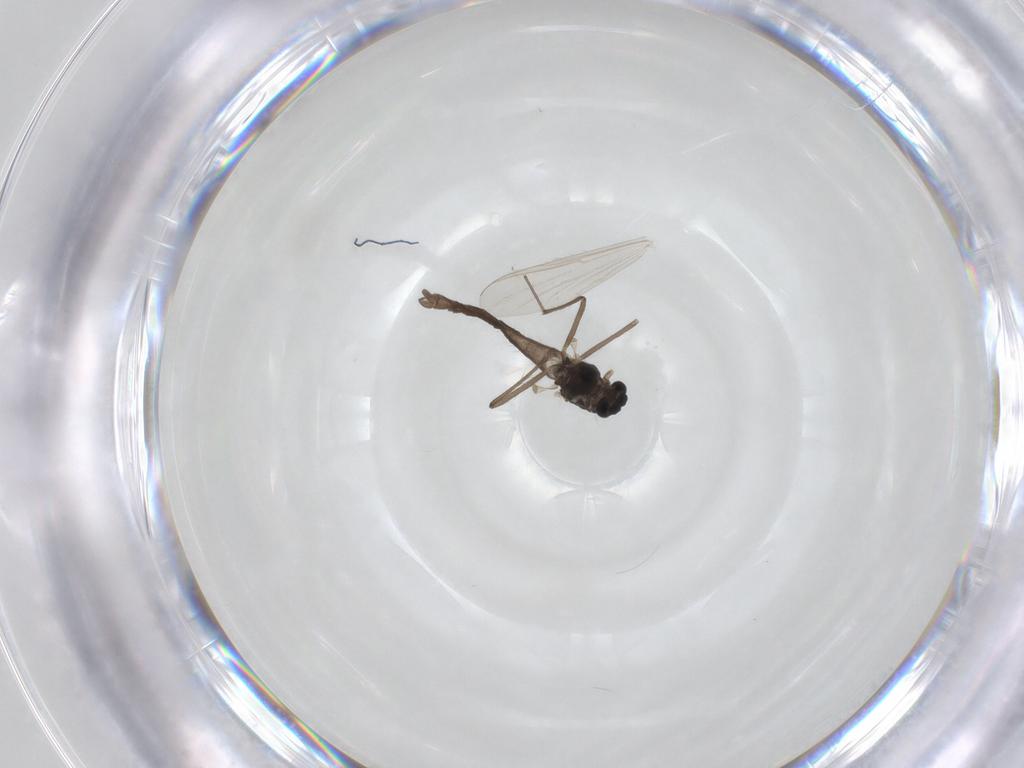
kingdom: Animalia
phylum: Arthropoda
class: Insecta
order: Diptera
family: Chironomidae
